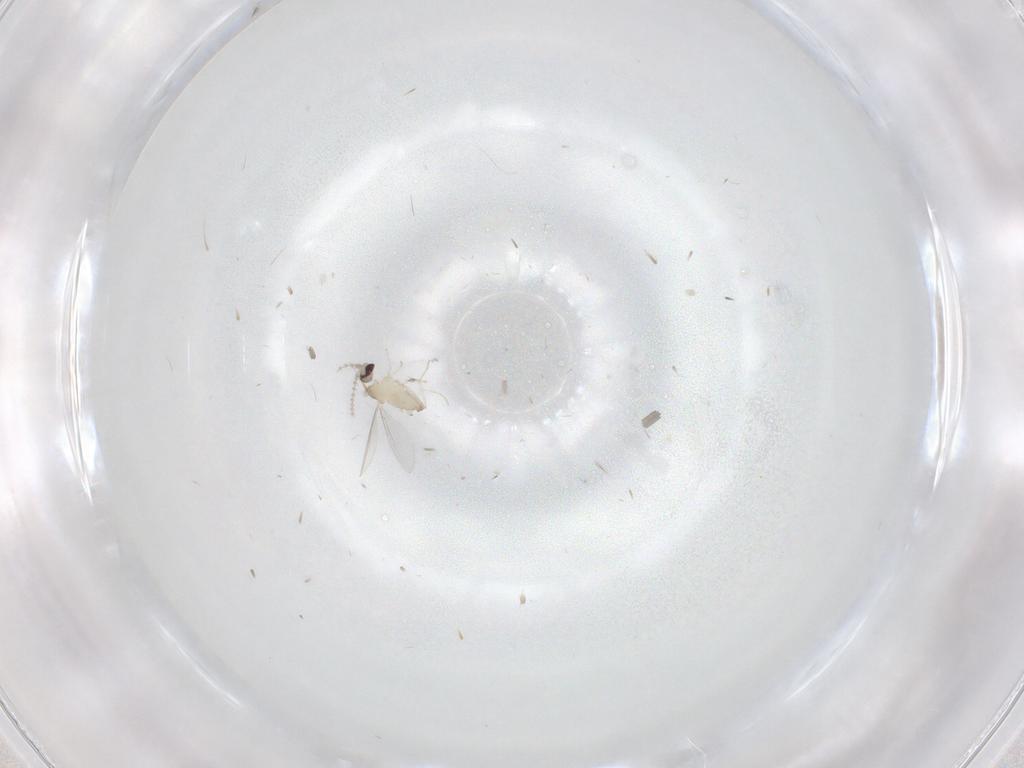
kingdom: Animalia
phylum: Arthropoda
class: Insecta
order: Diptera
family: Cecidomyiidae
